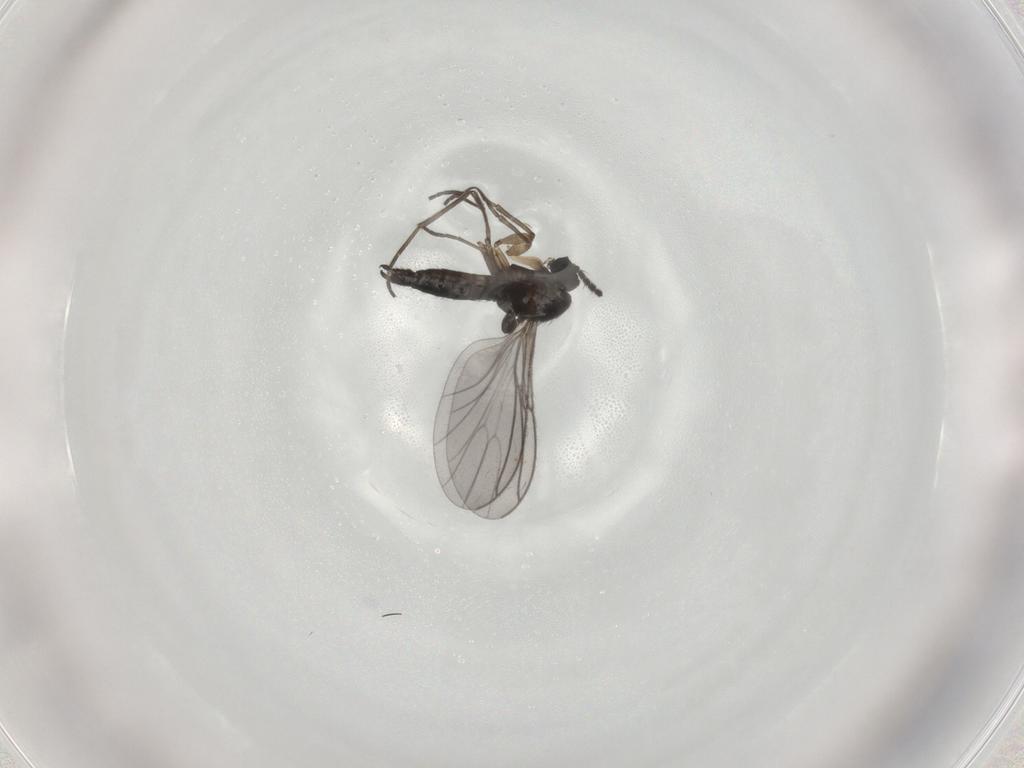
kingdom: Animalia
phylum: Arthropoda
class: Insecta
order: Diptera
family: Sciaridae
